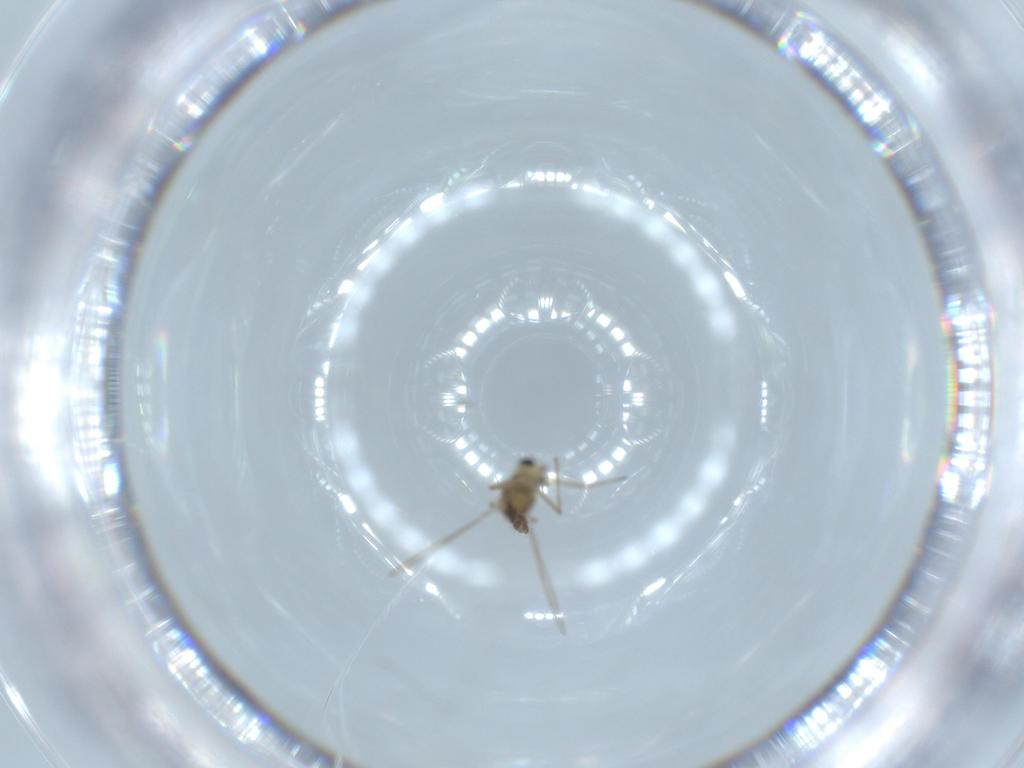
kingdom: Animalia
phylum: Arthropoda
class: Insecta
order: Diptera
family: Chironomidae
